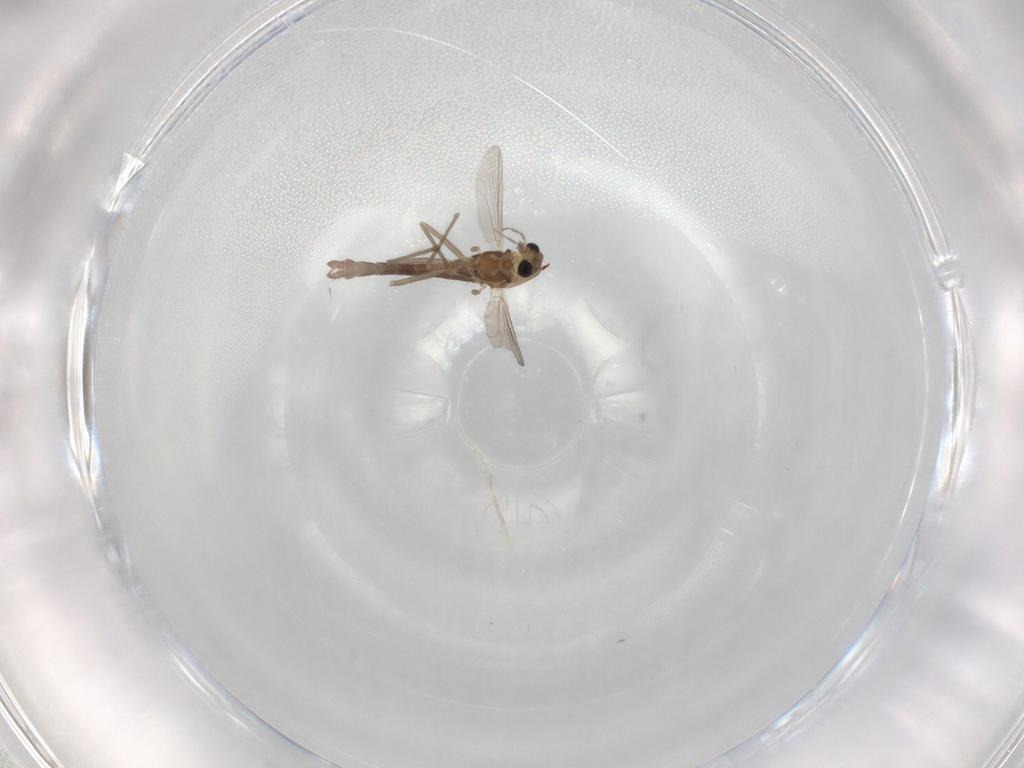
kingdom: Animalia
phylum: Arthropoda
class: Insecta
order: Diptera
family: Chironomidae
